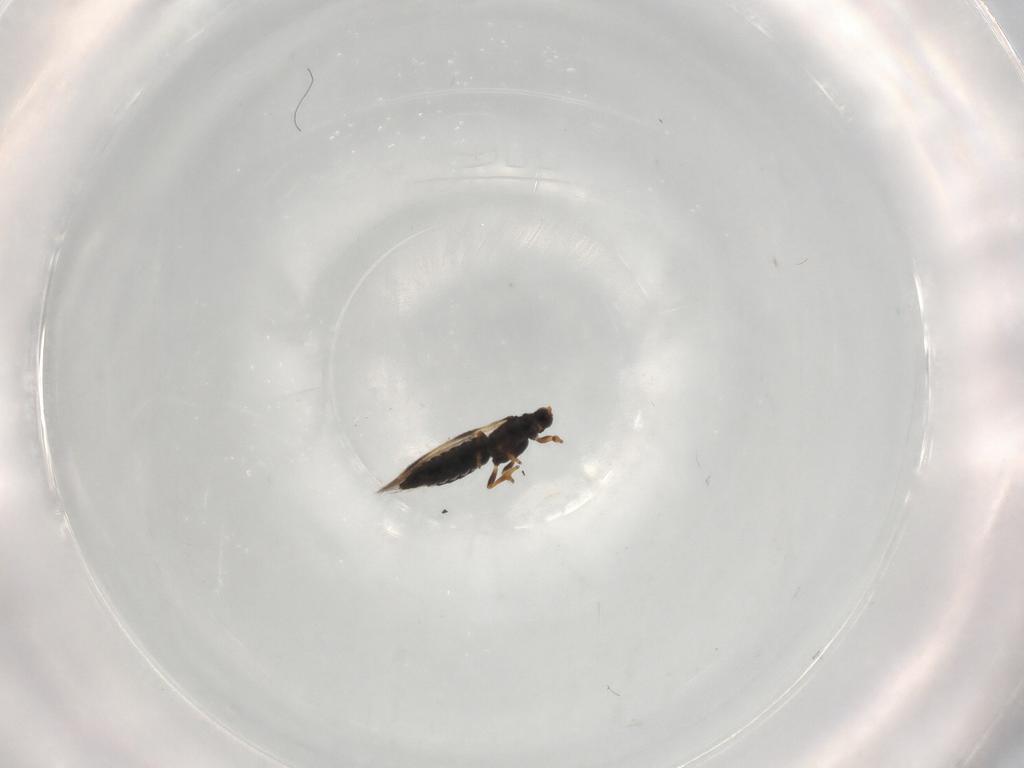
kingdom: Animalia
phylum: Arthropoda
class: Insecta
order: Thysanoptera
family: Thripidae
